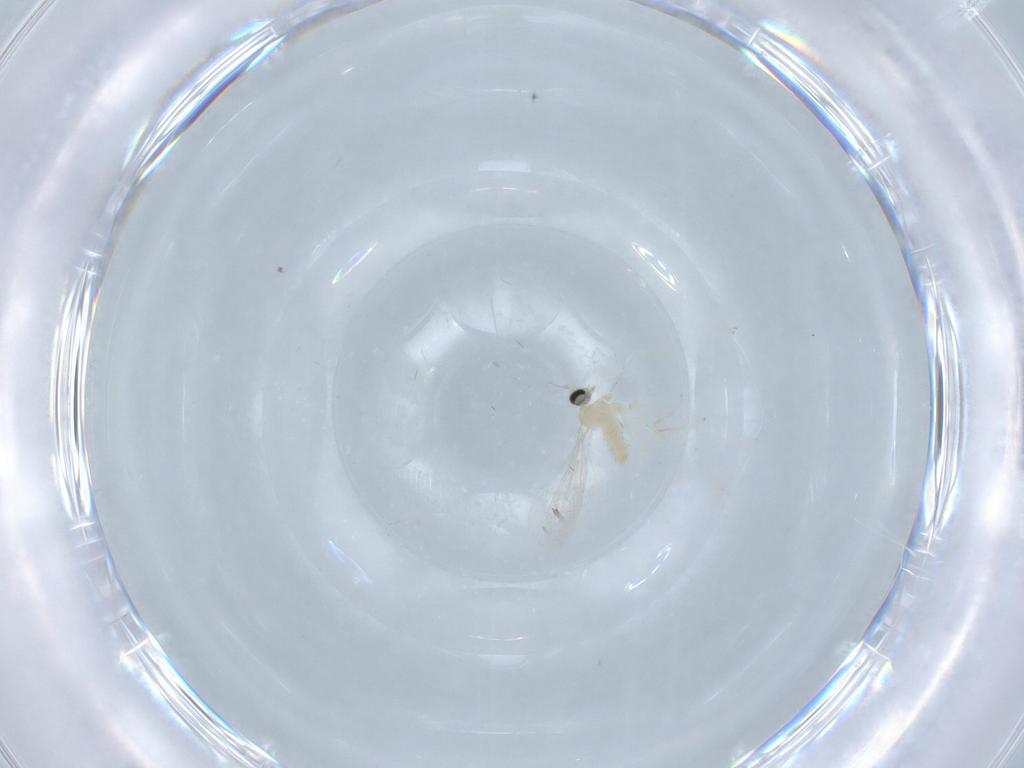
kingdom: Animalia
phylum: Arthropoda
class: Insecta
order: Diptera
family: Cecidomyiidae
